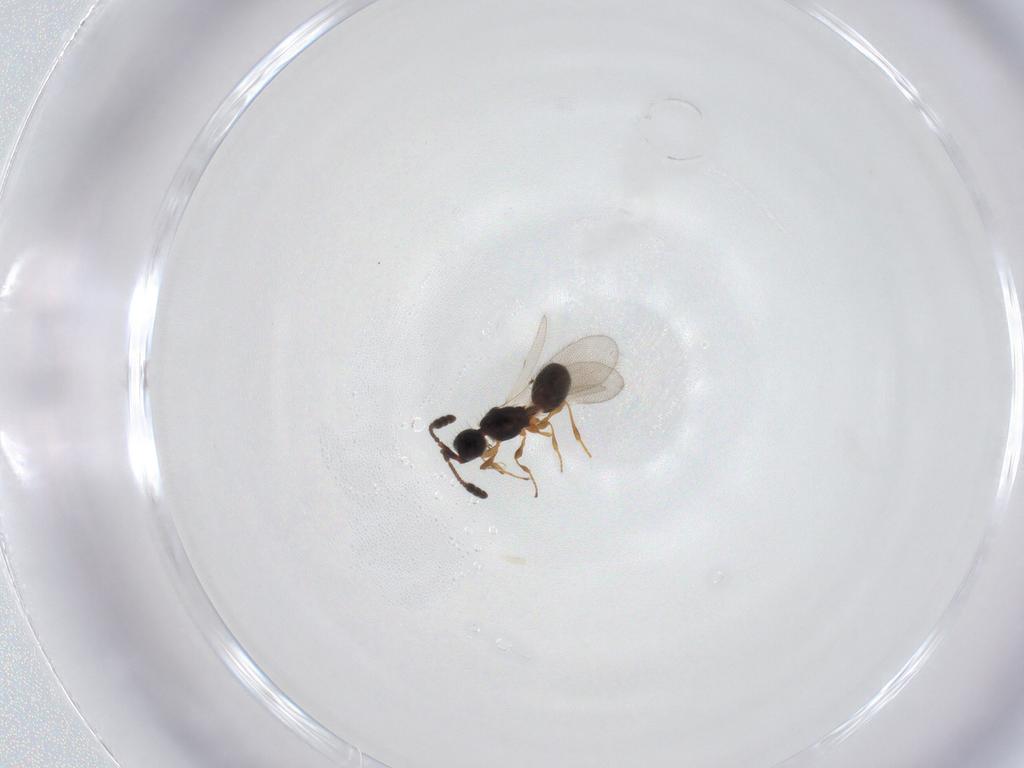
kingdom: Animalia
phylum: Arthropoda
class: Insecta
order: Hymenoptera
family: Diapriidae
